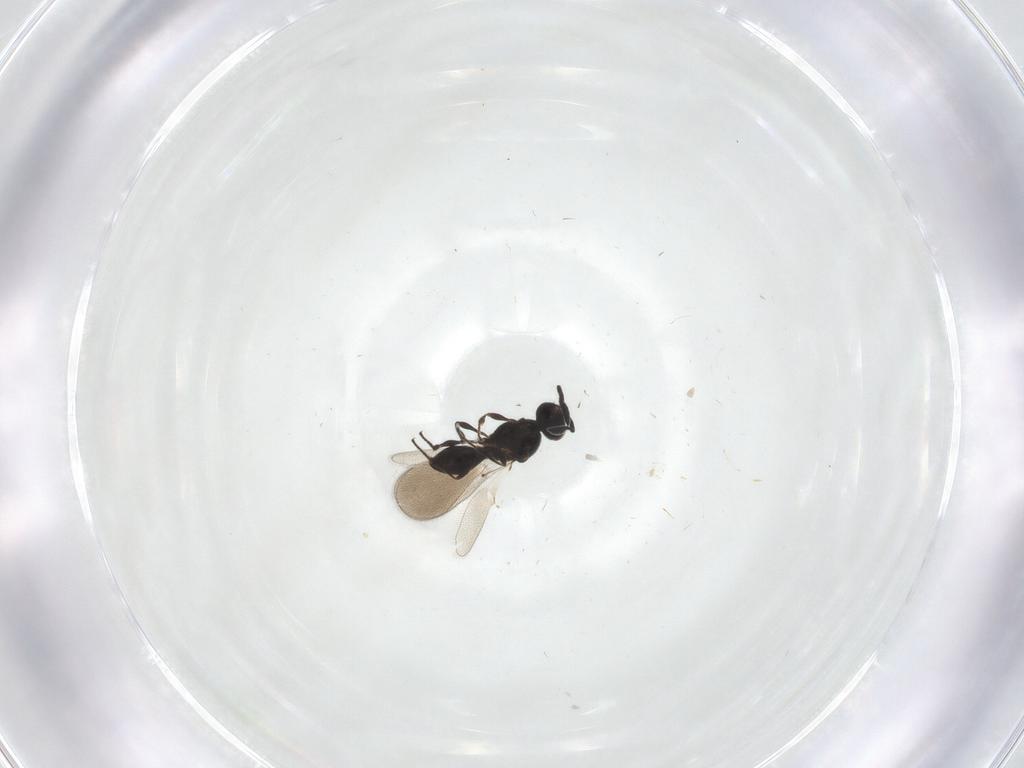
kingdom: Animalia
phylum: Arthropoda
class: Insecta
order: Hymenoptera
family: Platygastridae
